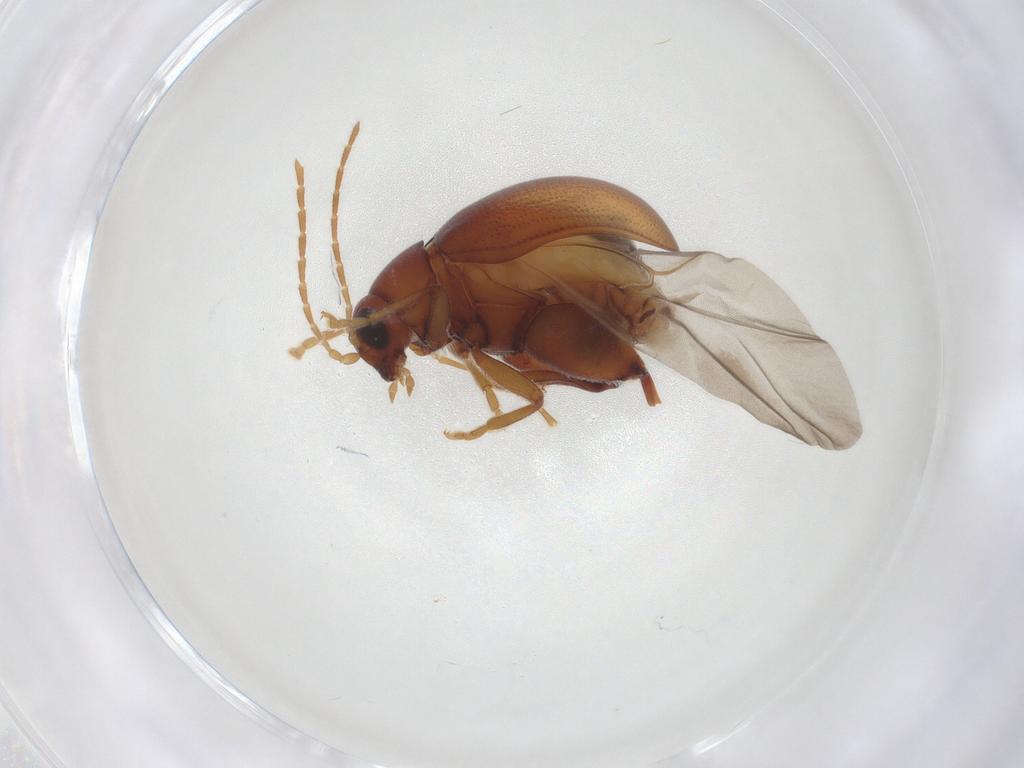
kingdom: Animalia
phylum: Arthropoda
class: Insecta
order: Coleoptera
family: Chrysomelidae
